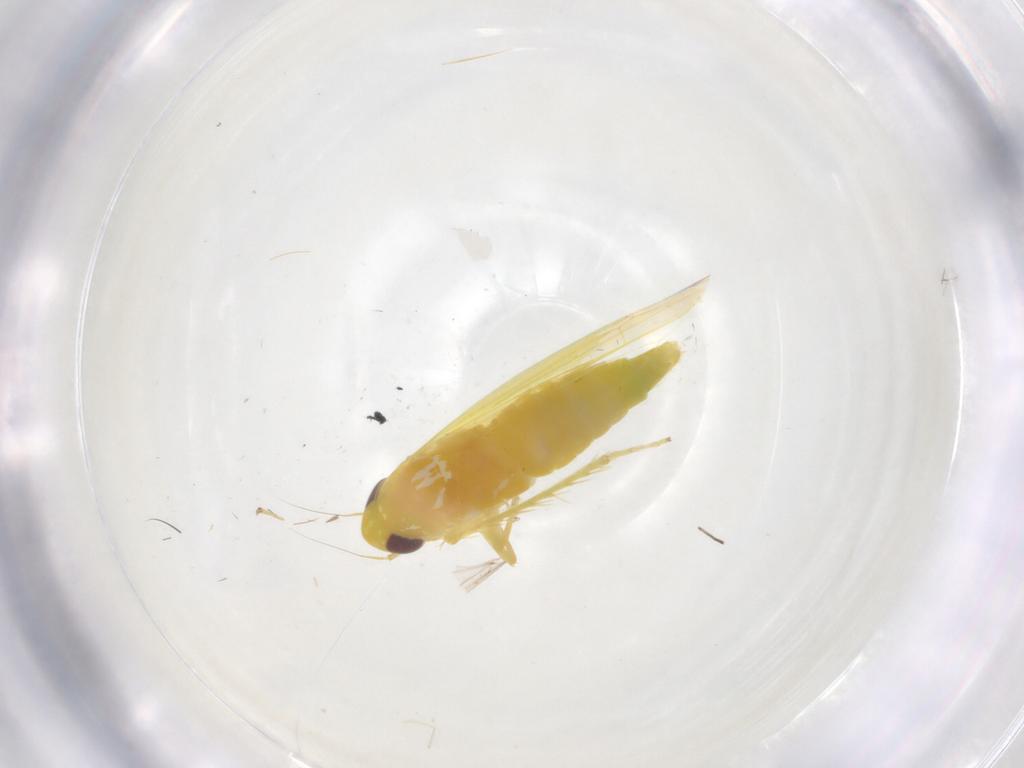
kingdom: Animalia
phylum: Arthropoda
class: Insecta
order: Hemiptera
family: Cicadellidae
